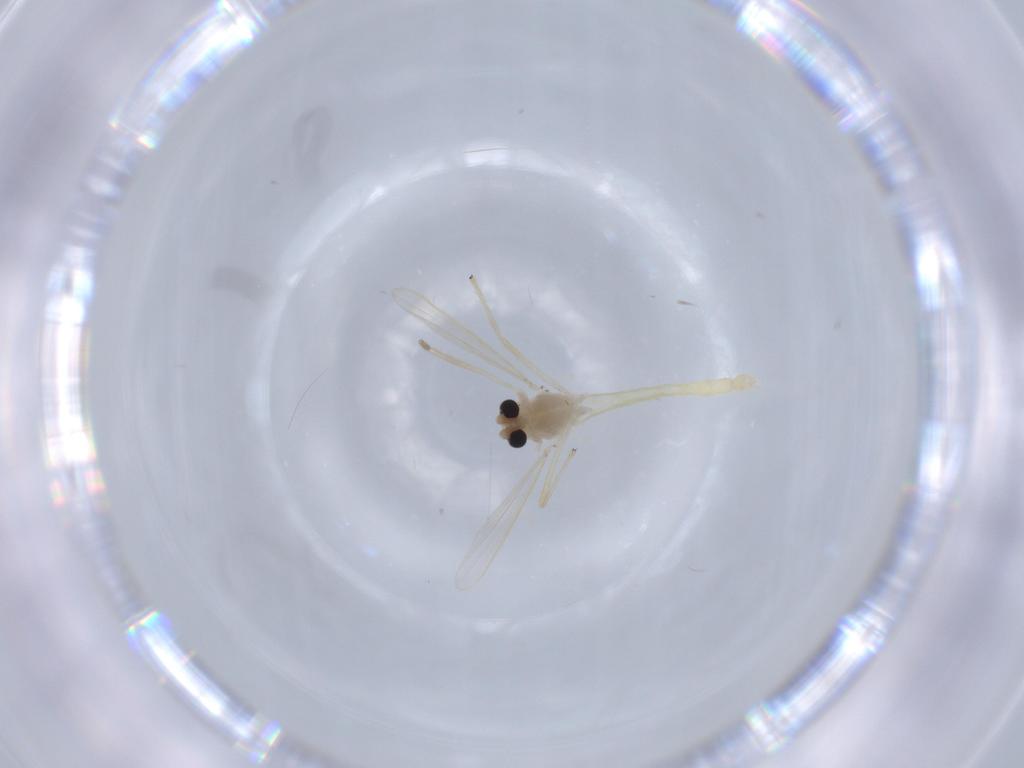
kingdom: Animalia
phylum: Arthropoda
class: Insecta
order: Diptera
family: Chironomidae
